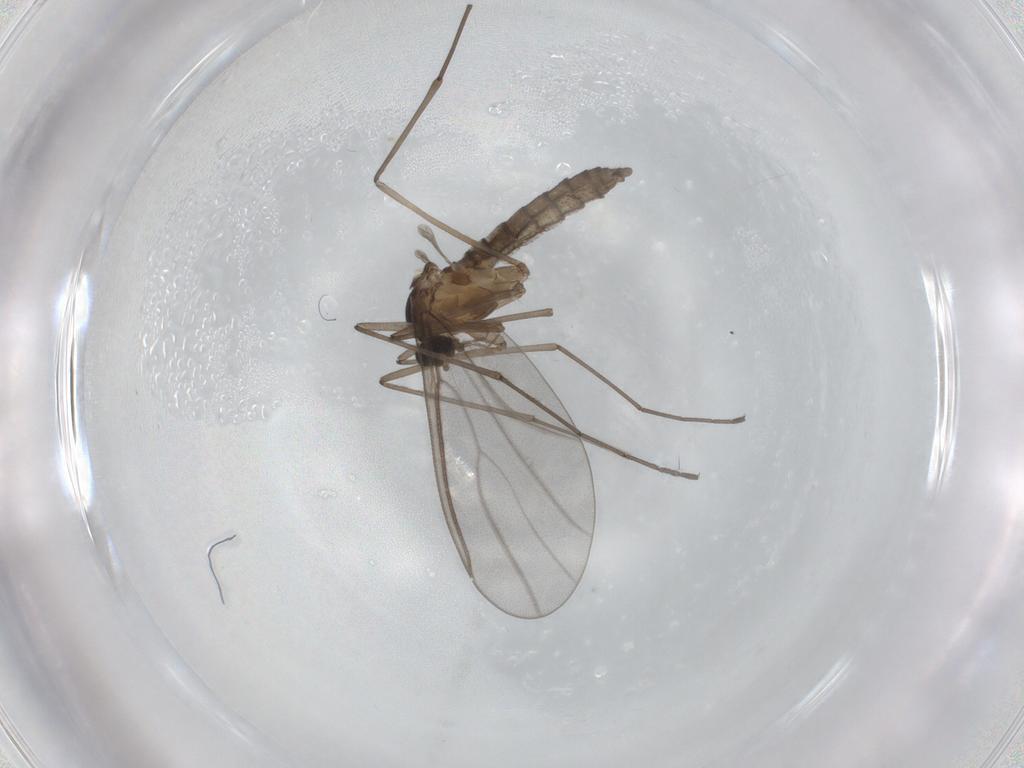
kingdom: Animalia
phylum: Arthropoda
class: Insecta
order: Diptera
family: Cecidomyiidae
